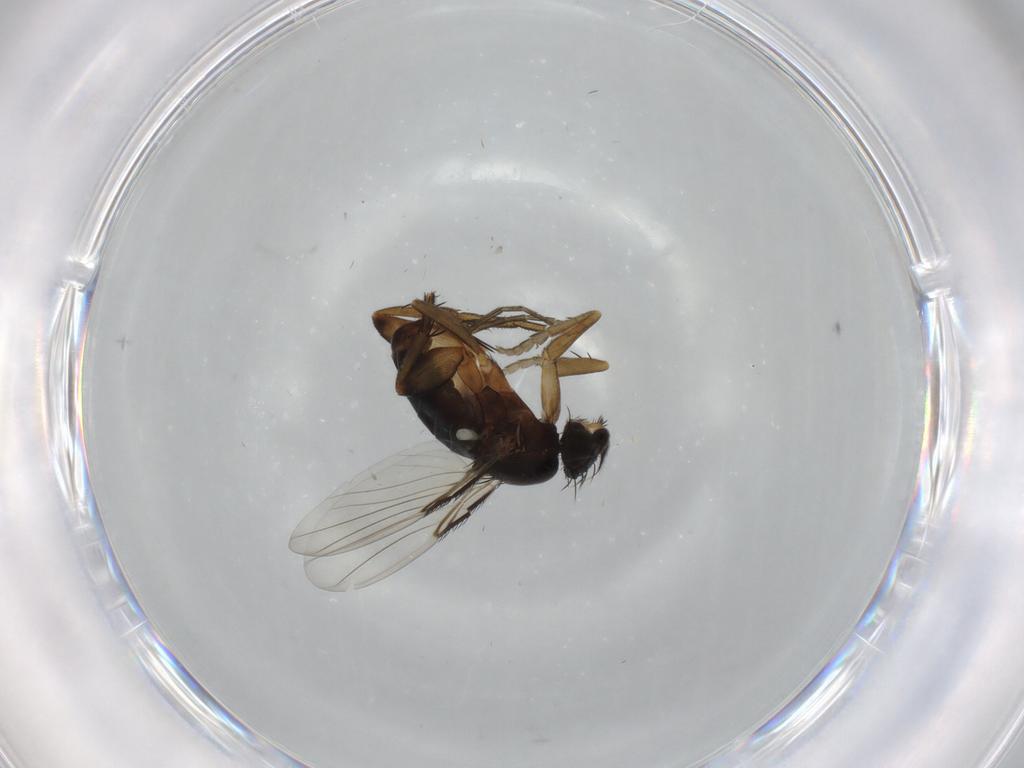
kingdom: Animalia
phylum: Arthropoda
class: Insecta
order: Diptera
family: Phoridae
